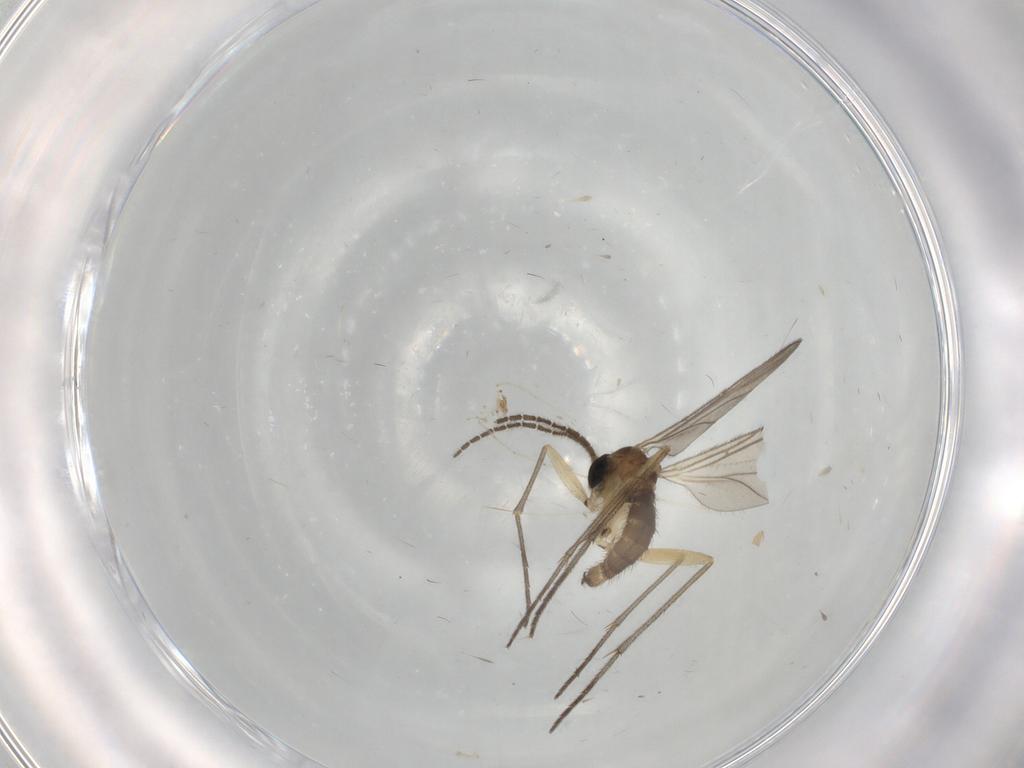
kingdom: Animalia
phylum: Arthropoda
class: Insecta
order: Diptera
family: Sciaridae
